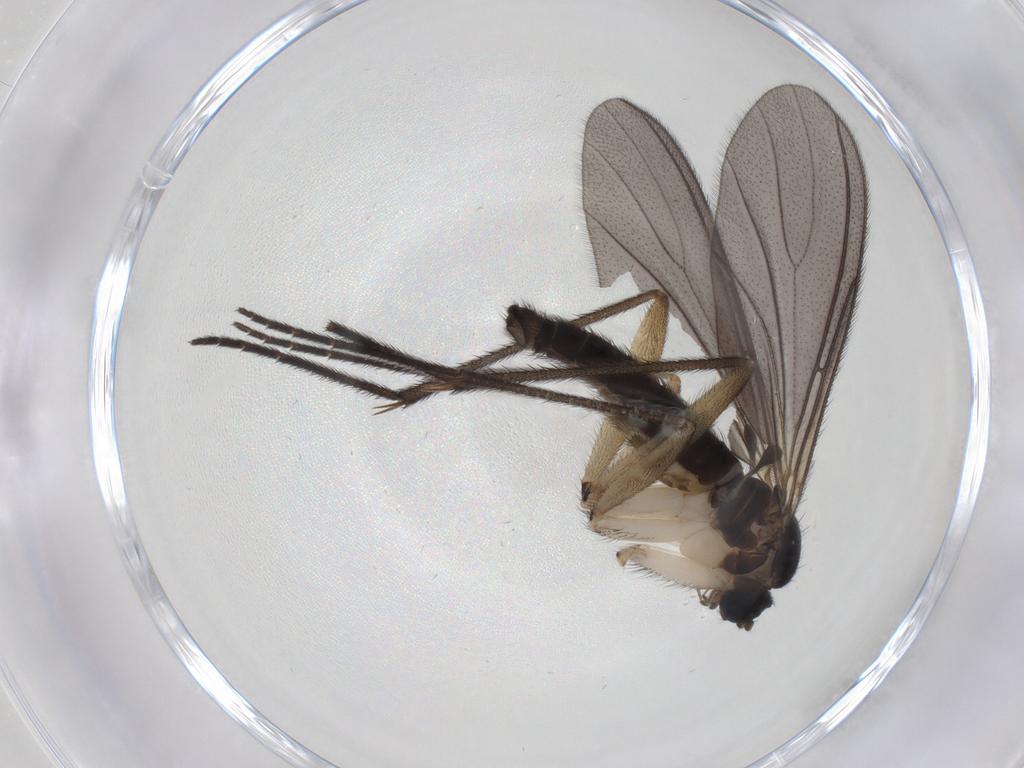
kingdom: Animalia
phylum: Arthropoda
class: Insecta
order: Diptera
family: Sciaridae
